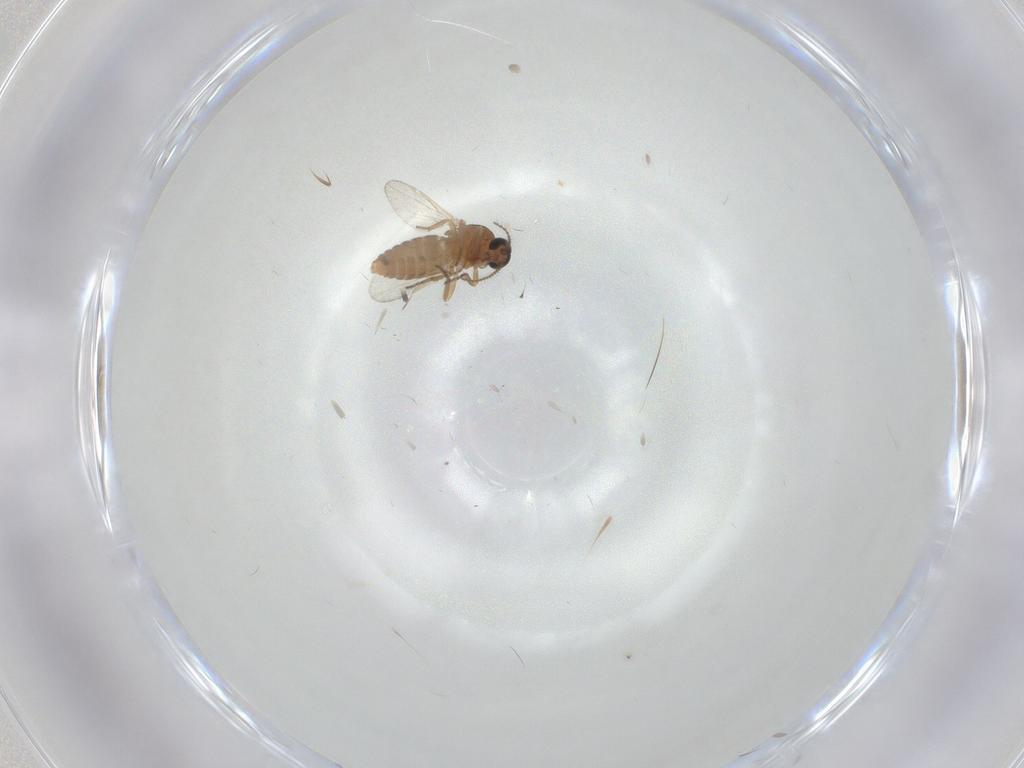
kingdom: Animalia
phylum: Arthropoda
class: Insecta
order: Diptera
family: Ceratopogonidae
